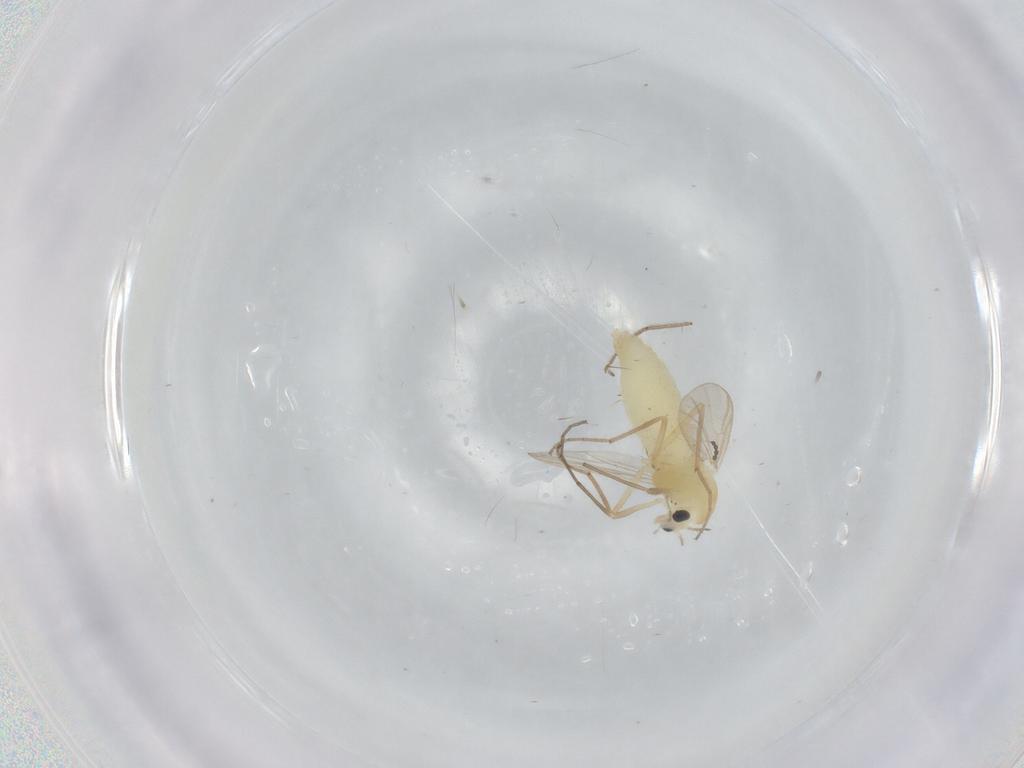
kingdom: Animalia
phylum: Arthropoda
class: Insecta
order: Diptera
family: Chironomidae
